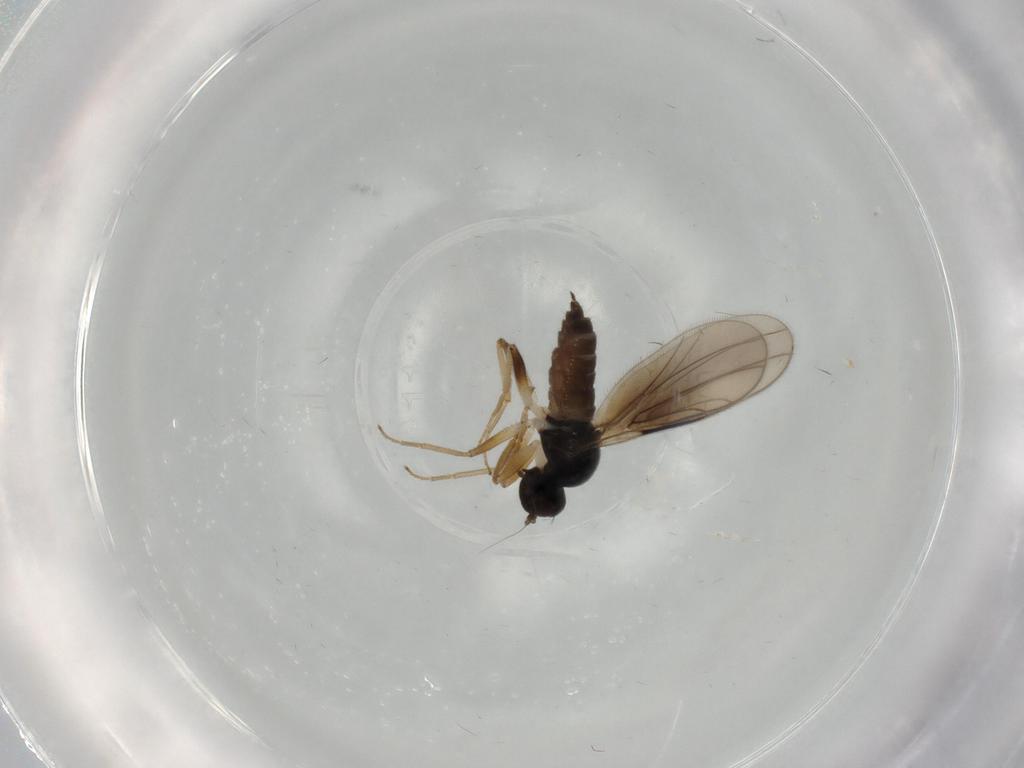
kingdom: Animalia
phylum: Arthropoda
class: Insecta
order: Diptera
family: Hybotidae
